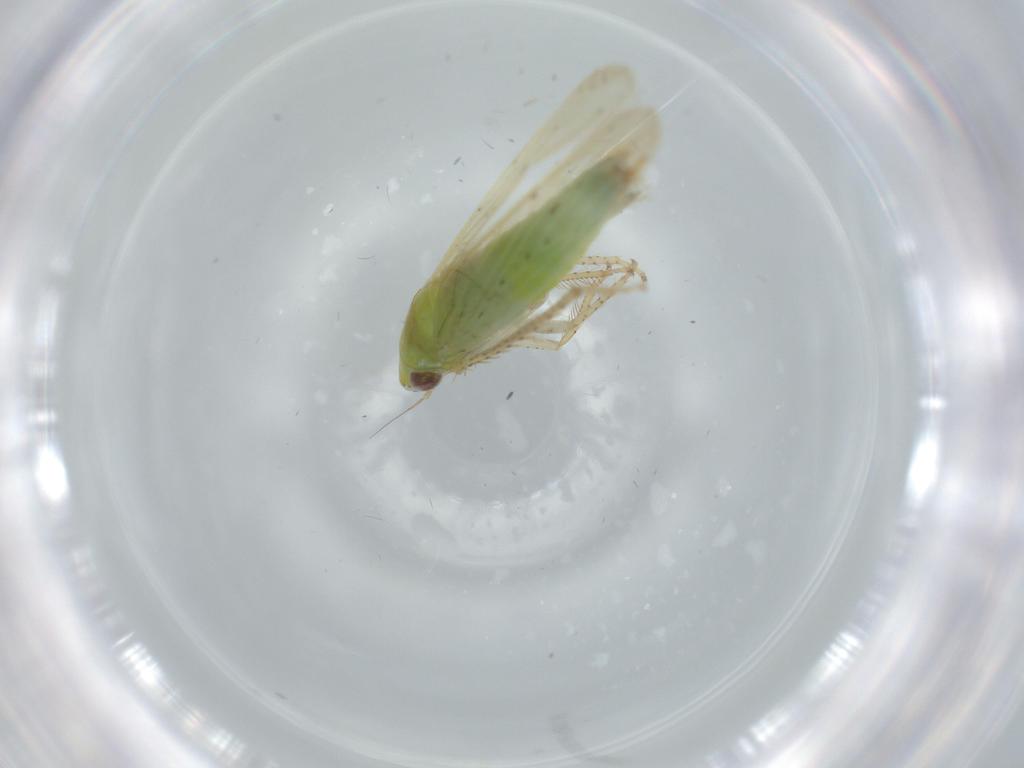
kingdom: Animalia
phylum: Arthropoda
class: Insecta
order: Hemiptera
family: Cicadellidae
